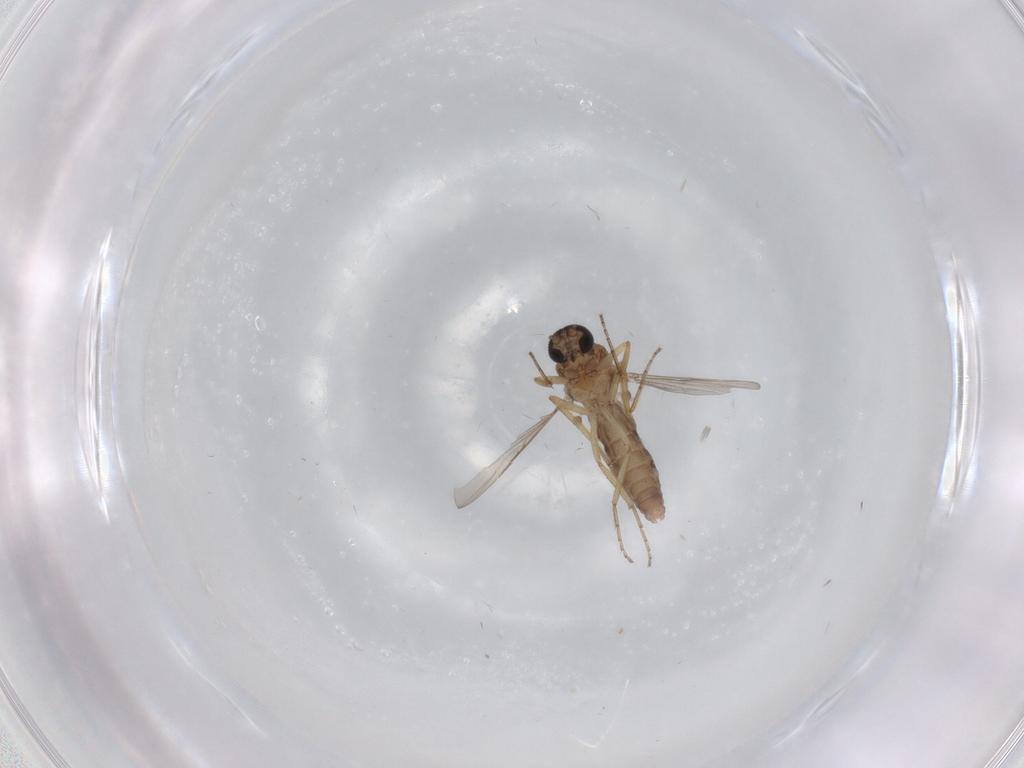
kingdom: Animalia
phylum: Arthropoda
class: Insecta
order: Diptera
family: Ceratopogonidae
